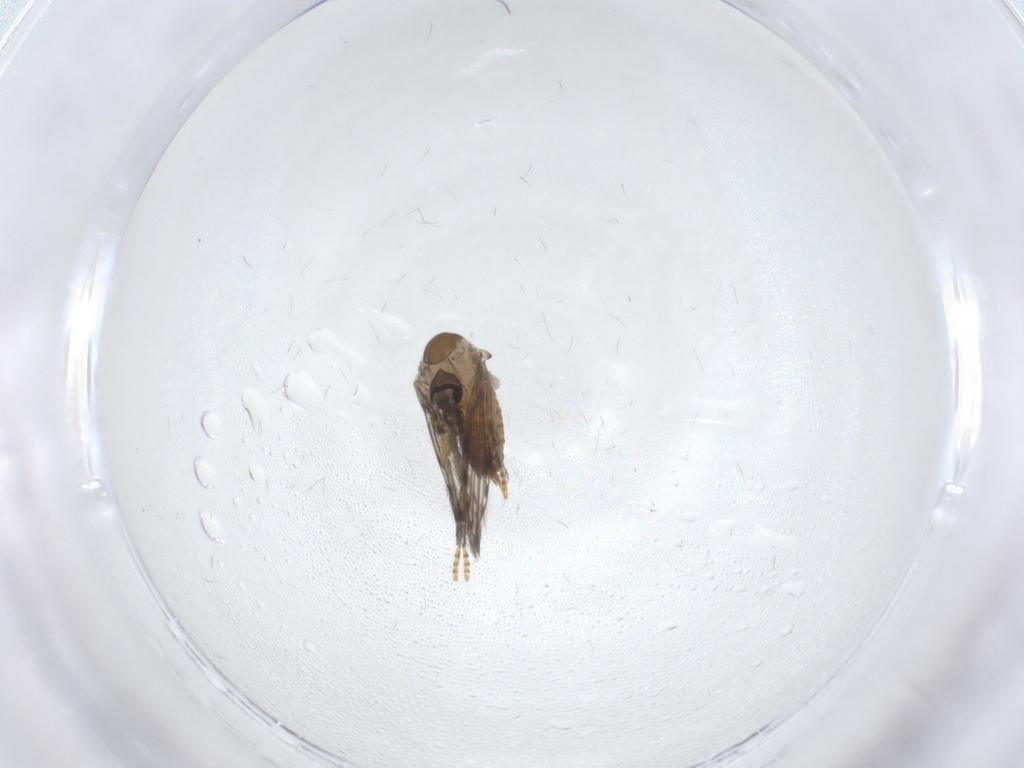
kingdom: Animalia
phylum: Arthropoda
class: Insecta
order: Diptera
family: Psychodidae
